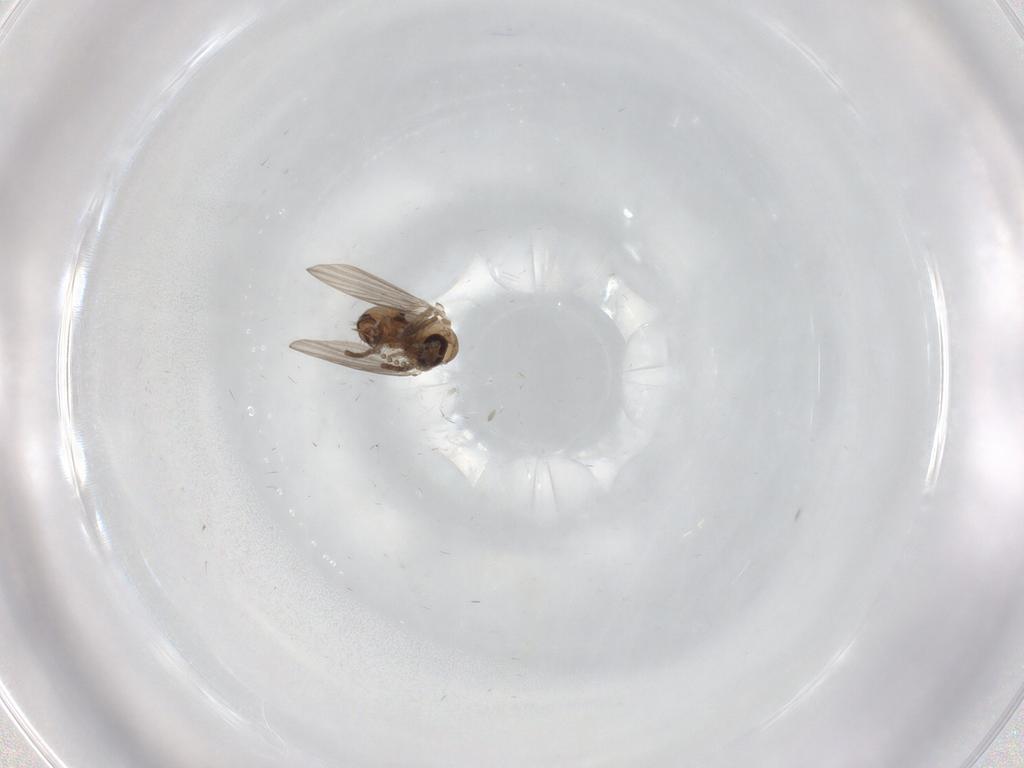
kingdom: Animalia
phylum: Arthropoda
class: Insecta
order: Diptera
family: Psychodidae
